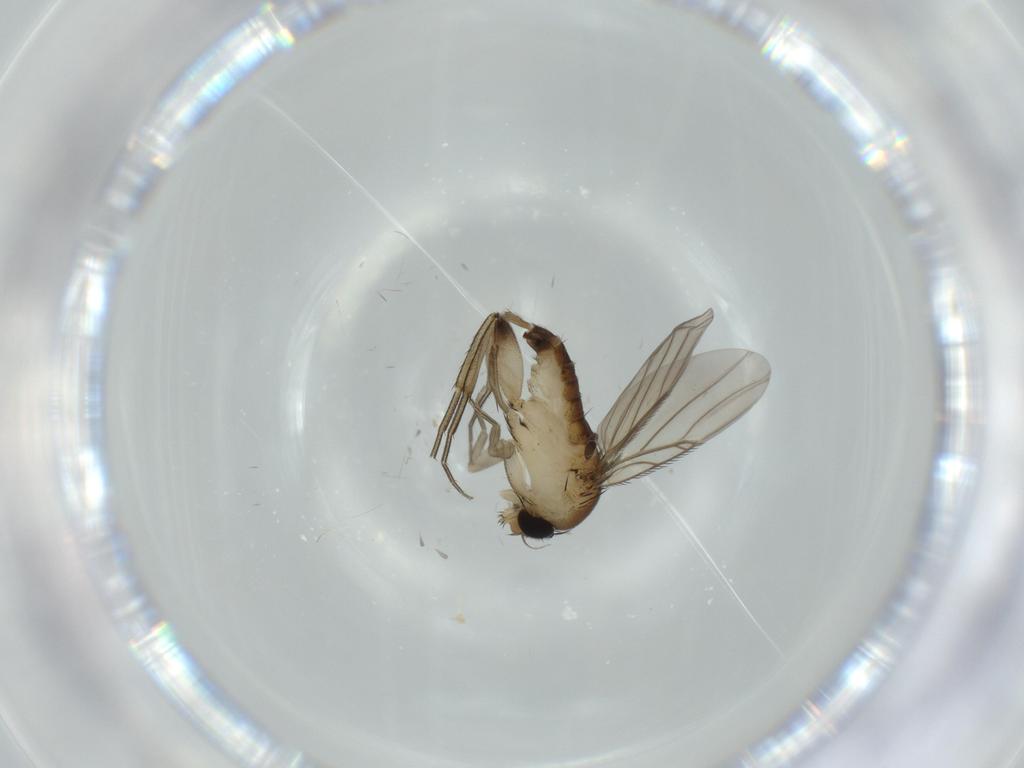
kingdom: Animalia
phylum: Arthropoda
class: Insecta
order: Diptera
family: Phoridae
